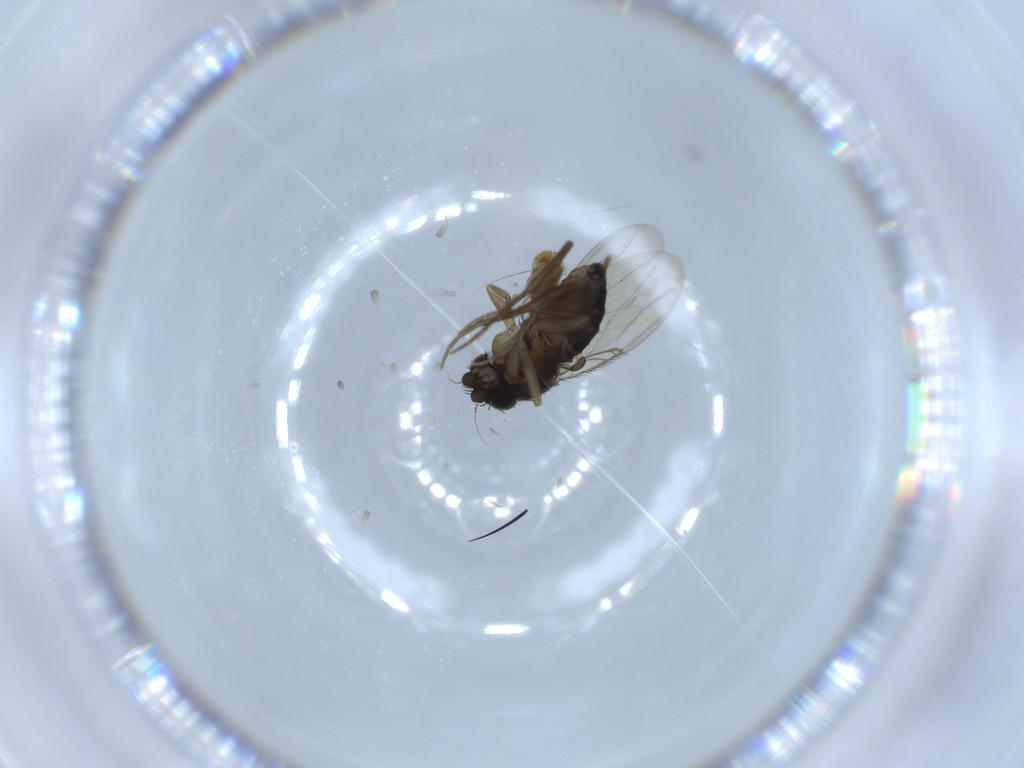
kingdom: Animalia
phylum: Arthropoda
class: Insecta
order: Diptera
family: Phoridae
